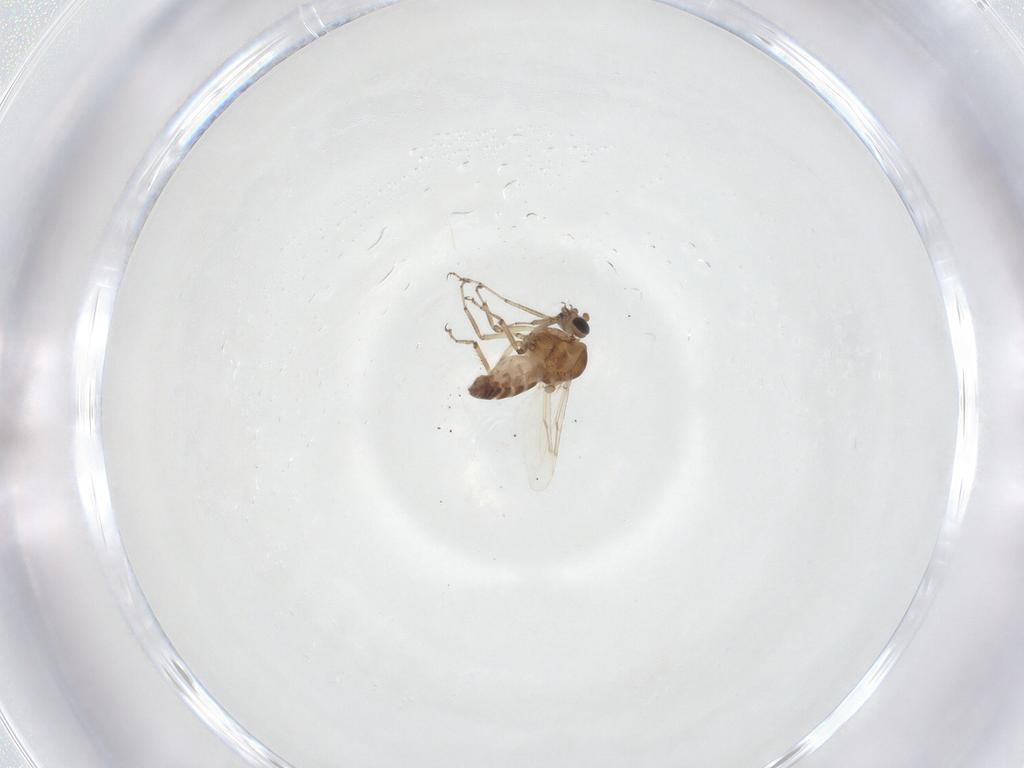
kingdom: Animalia
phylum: Arthropoda
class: Insecta
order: Diptera
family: Ceratopogonidae
